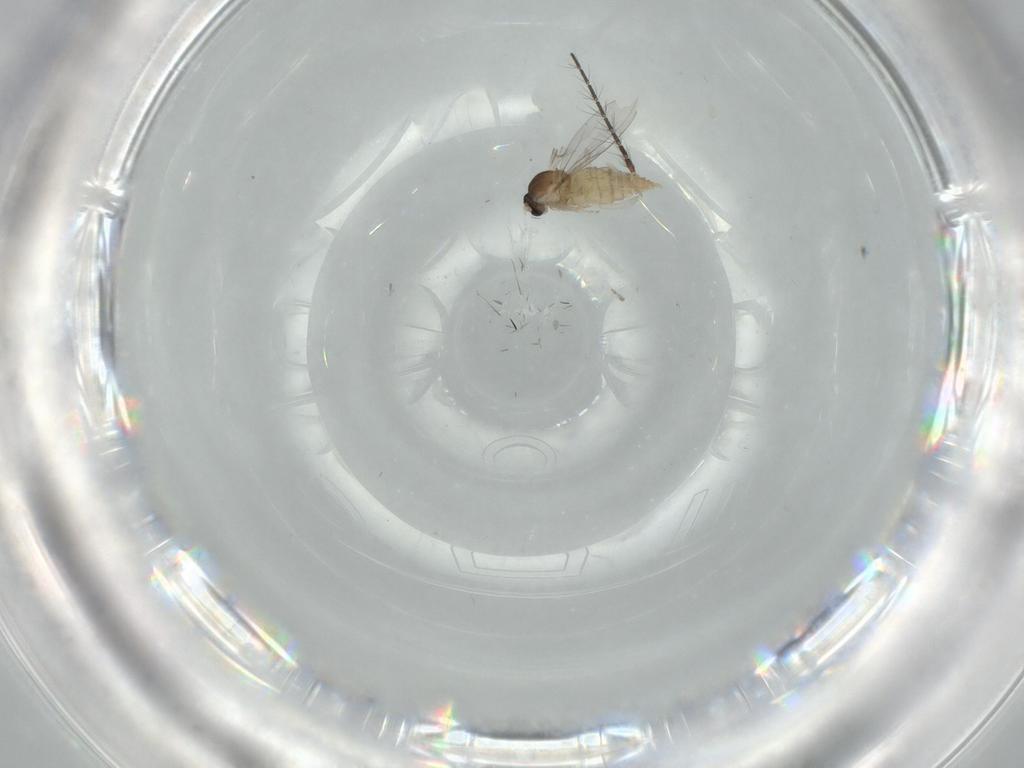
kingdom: Animalia
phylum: Arthropoda
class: Insecta
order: Diptera
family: Cecidomyiidae
